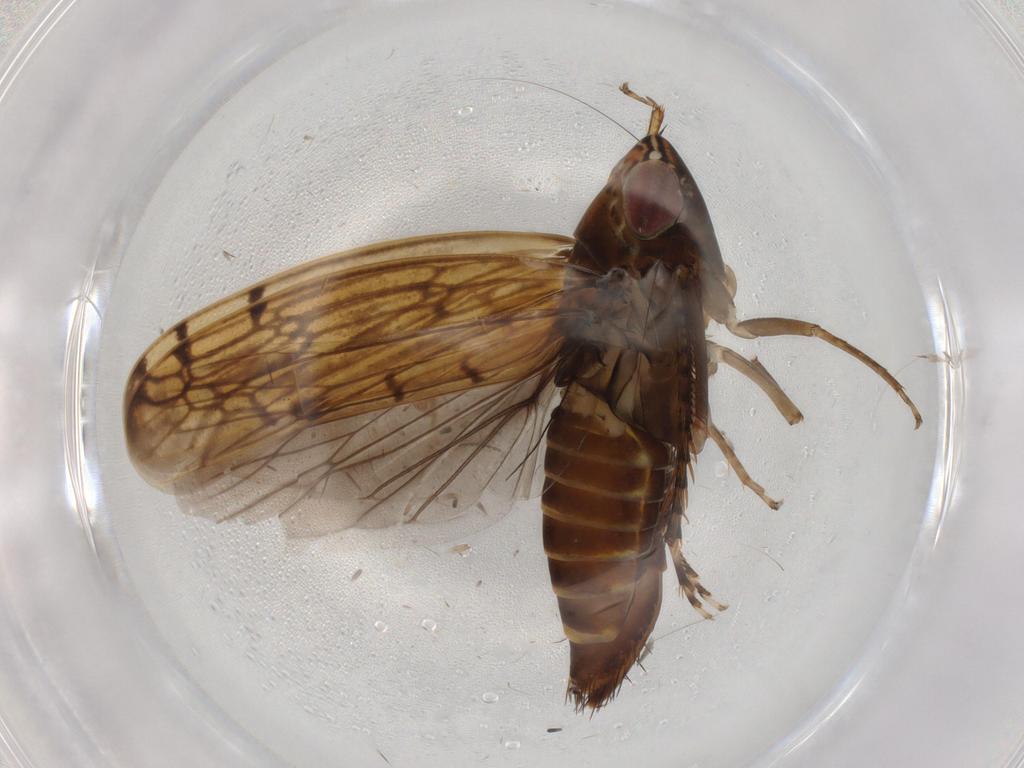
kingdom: Animalia
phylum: Arthropoda
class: Insecta
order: Hemiptera
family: Cicadellidae
